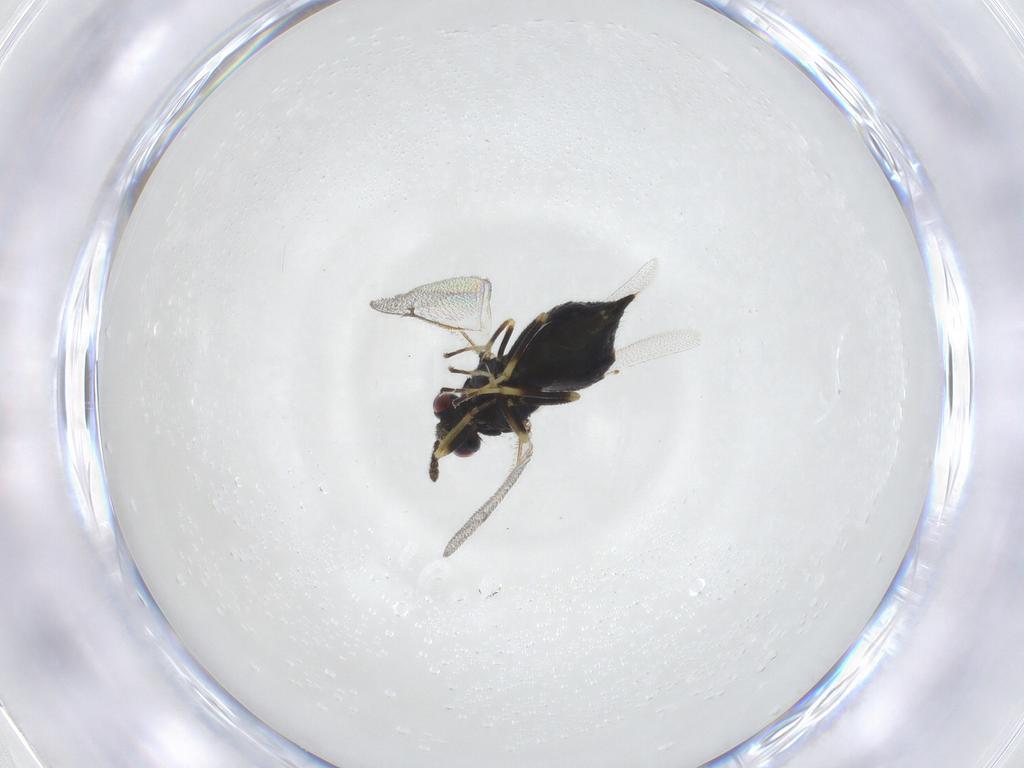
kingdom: Animalia
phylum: Arthropoda
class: Insecta
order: Hymenoptera
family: Eulophidae
